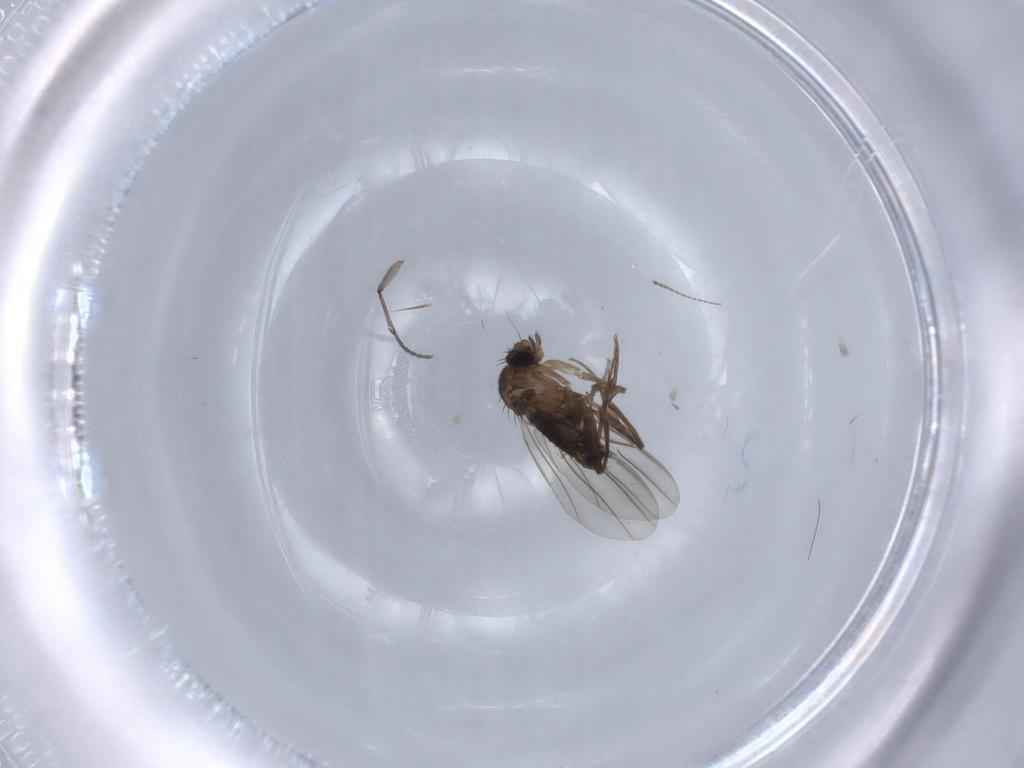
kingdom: Animalia
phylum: Arthropoda
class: Insecta
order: Diptera
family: Sciaridae
